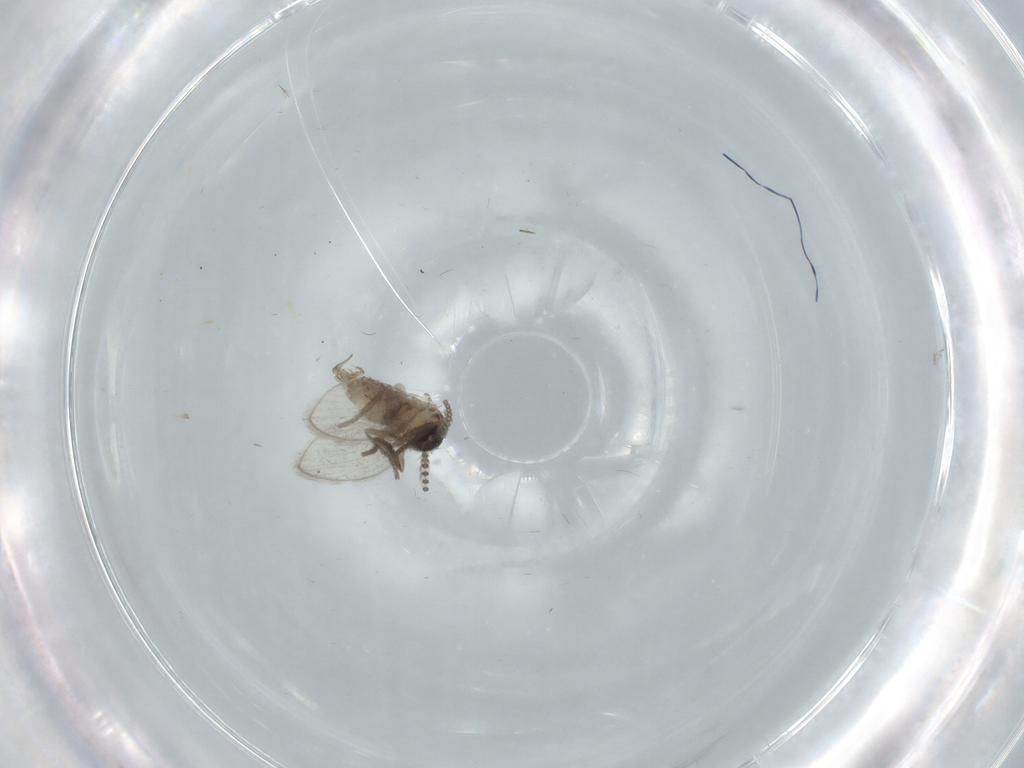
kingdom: Animalia
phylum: Arthropoda
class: Insecta
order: Diptera
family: Psychodidae
